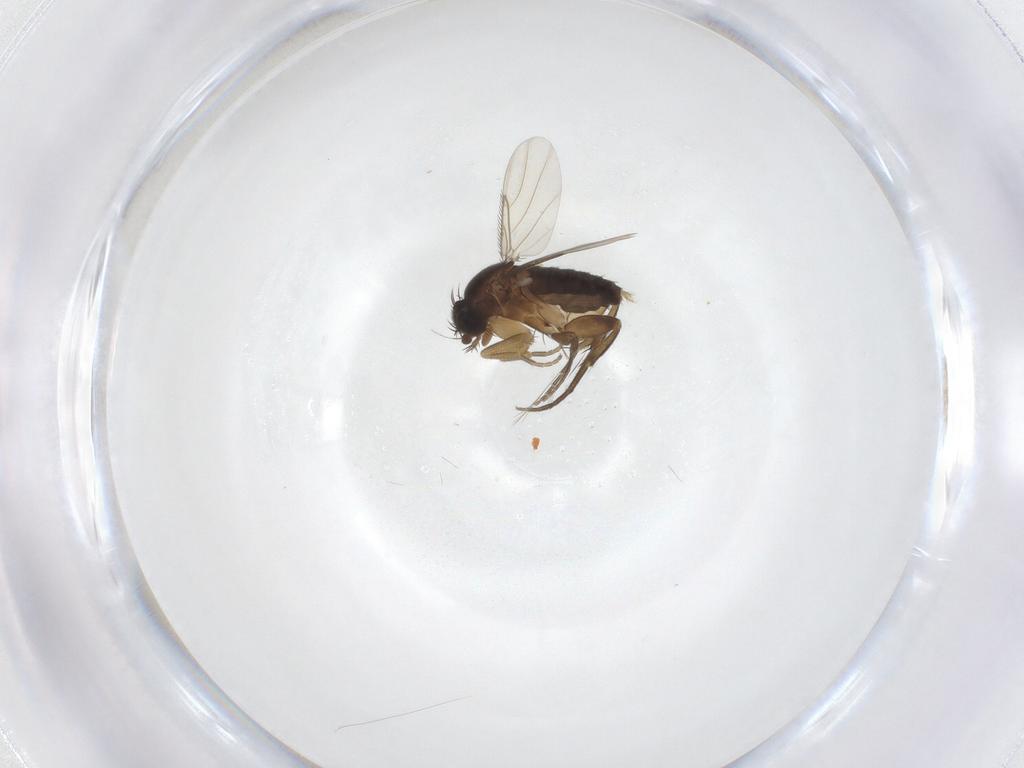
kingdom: Animalia
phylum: Arthropoda
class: Insecta
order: Diptera
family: Phoridae
